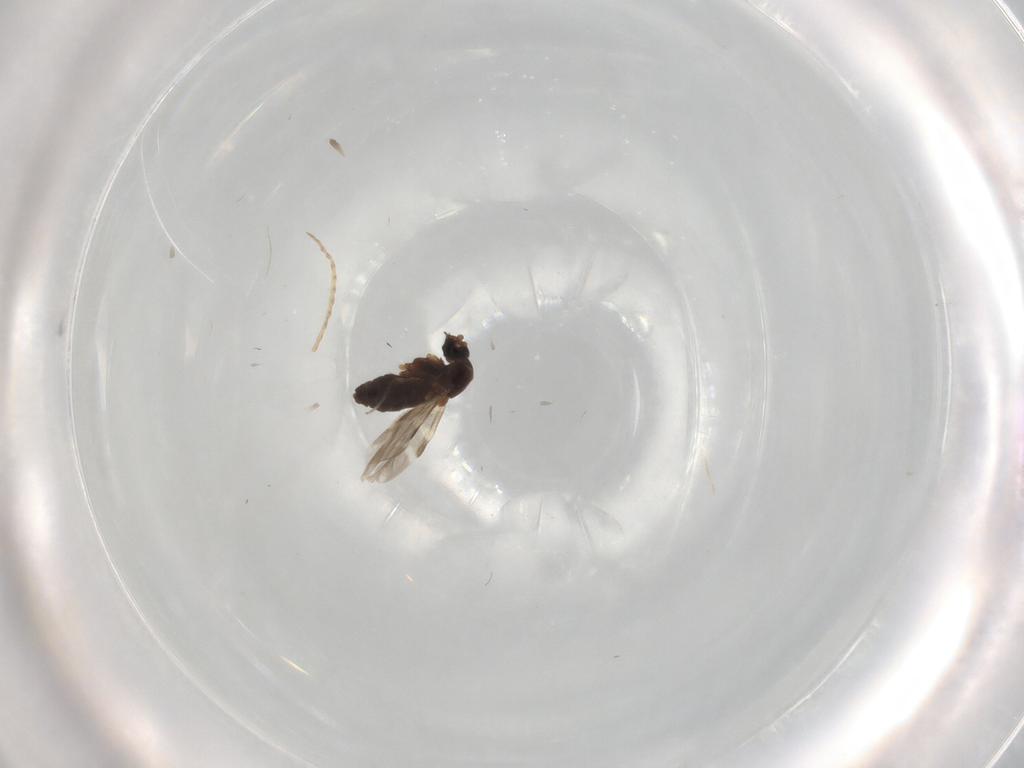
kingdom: Animalia
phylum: Arthropoda
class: Insecta
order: Diptera
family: Ceratopogonidae
